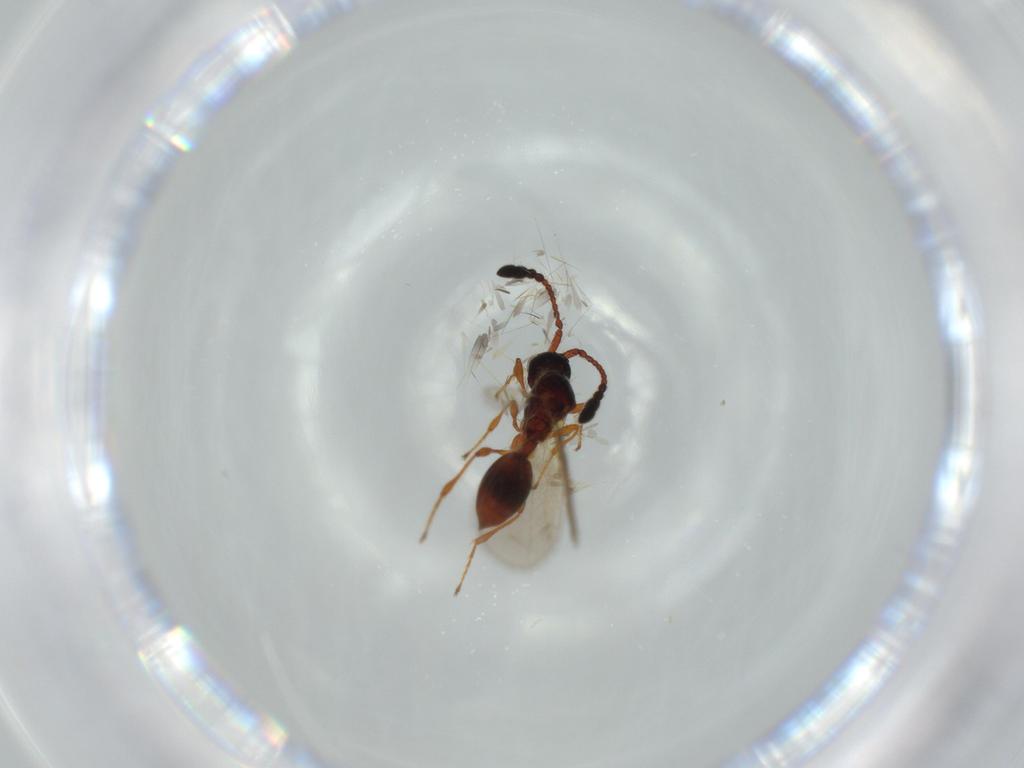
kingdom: Animalia
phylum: Arthropoda
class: Insecta
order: Hymenoptera
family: Diapriidae
